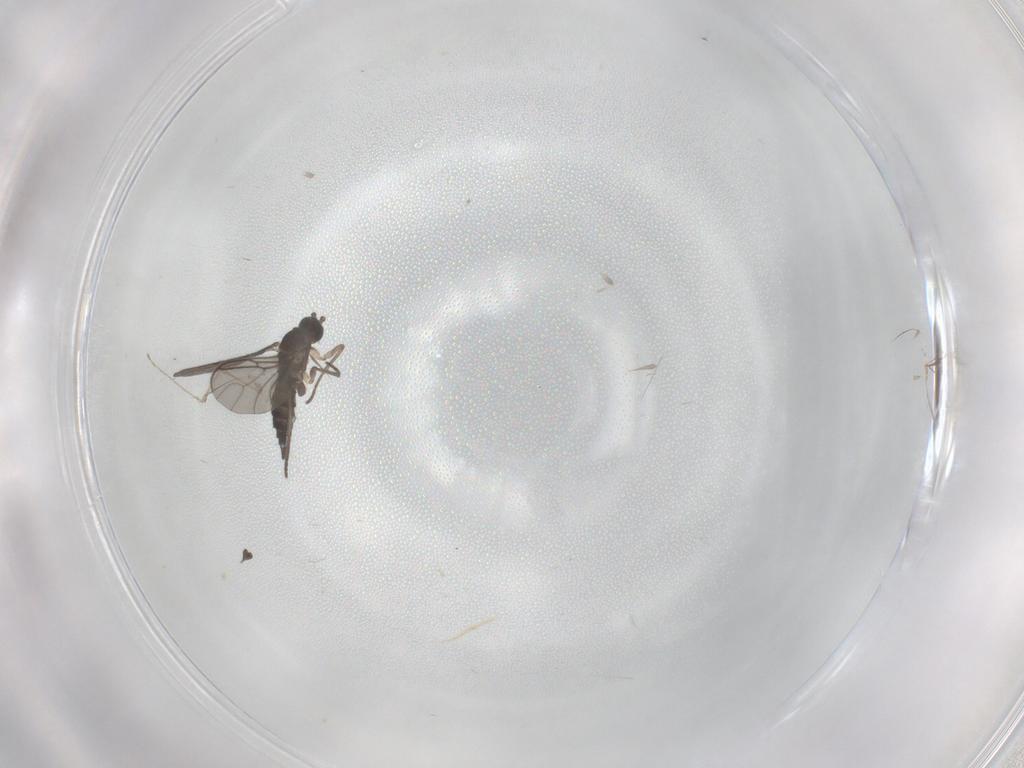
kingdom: Animalia
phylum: Arthropoda
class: Insecta
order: Diptera
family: Sciaridae
